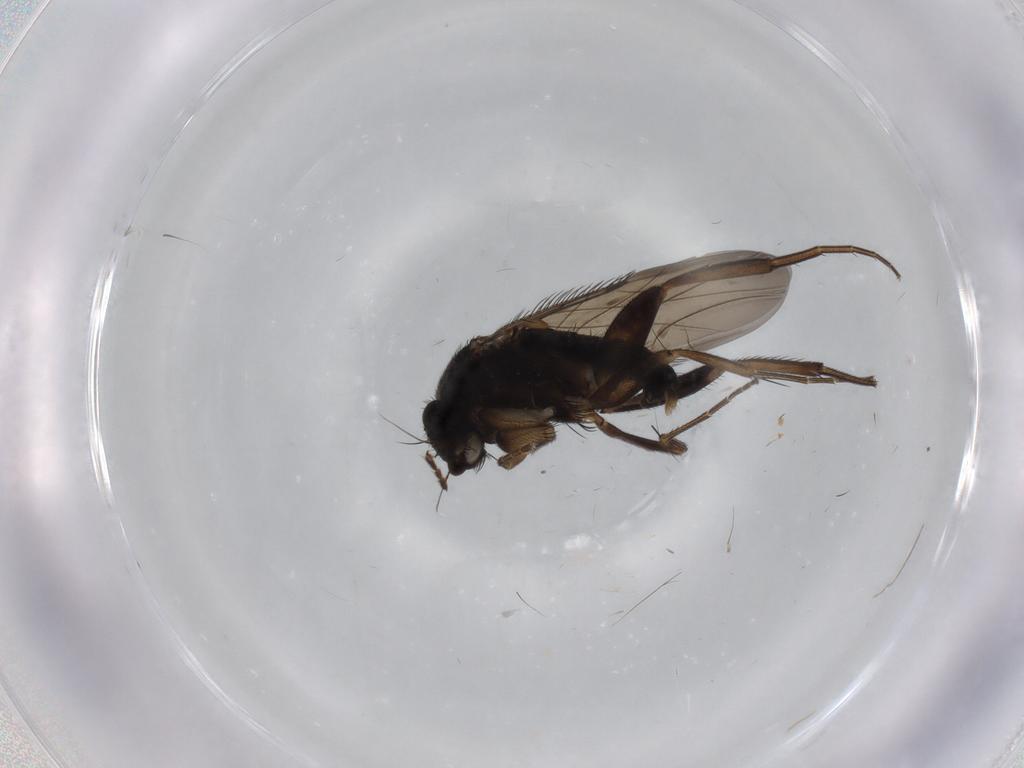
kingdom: Animalia
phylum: Arthropoda
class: Insecta
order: Diptera
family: Phoridae
